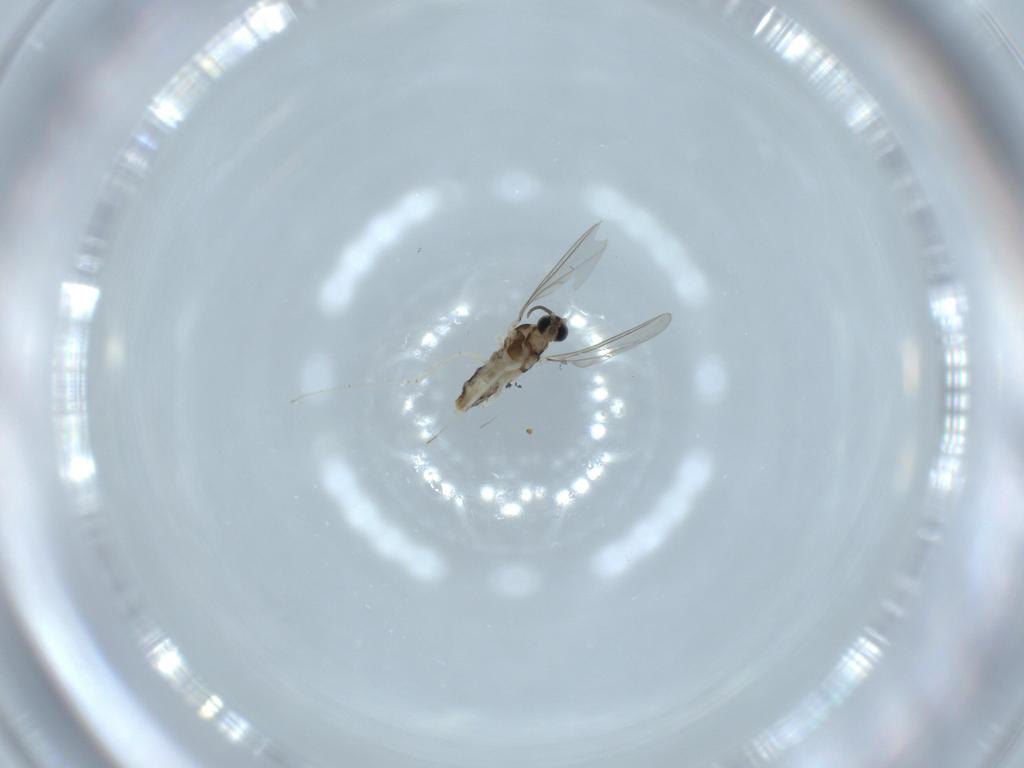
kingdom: Animalia
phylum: Arthropoda
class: Insecta
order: Diptera
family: Cecidomyiidae
